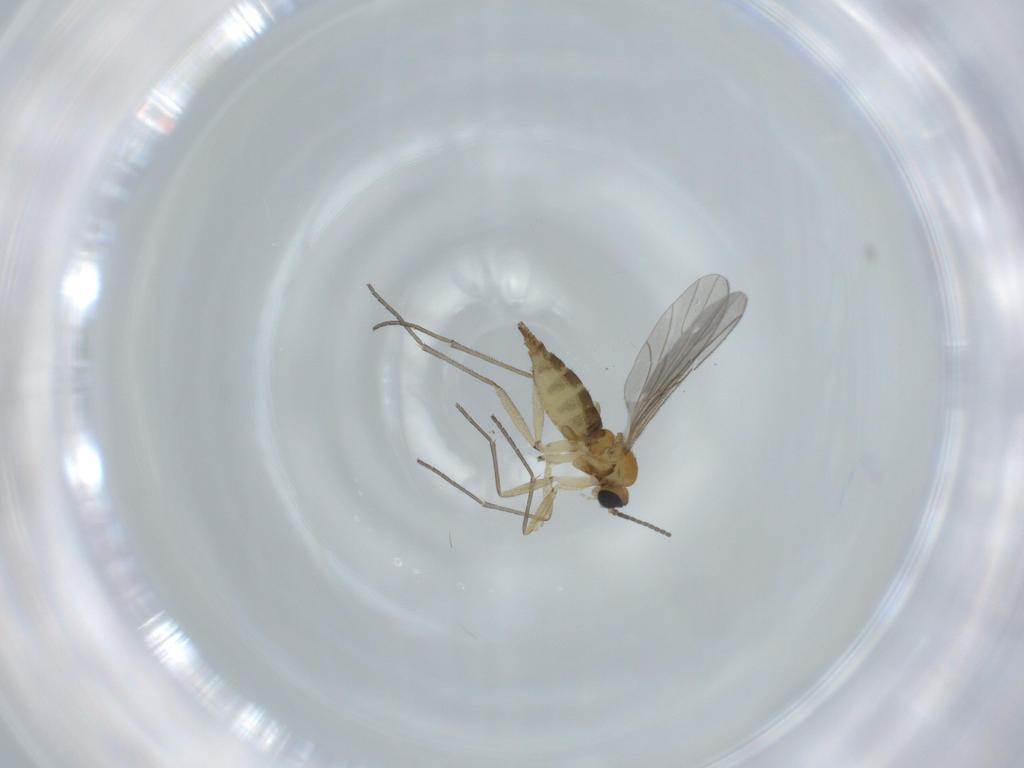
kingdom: Animalia
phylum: Arthropoda
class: Insecta
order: Diptera
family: Sciaridae
